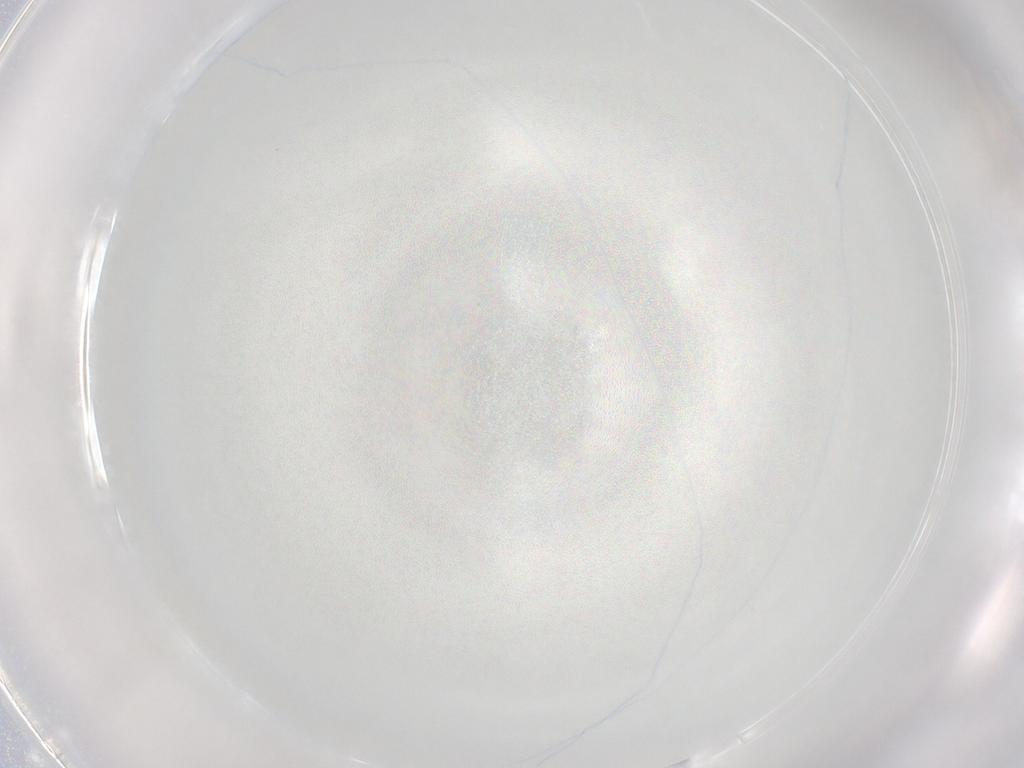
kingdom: Animalia
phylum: Arthropoda
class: Arachnida
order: Trombidiformes
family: Eupodidae
